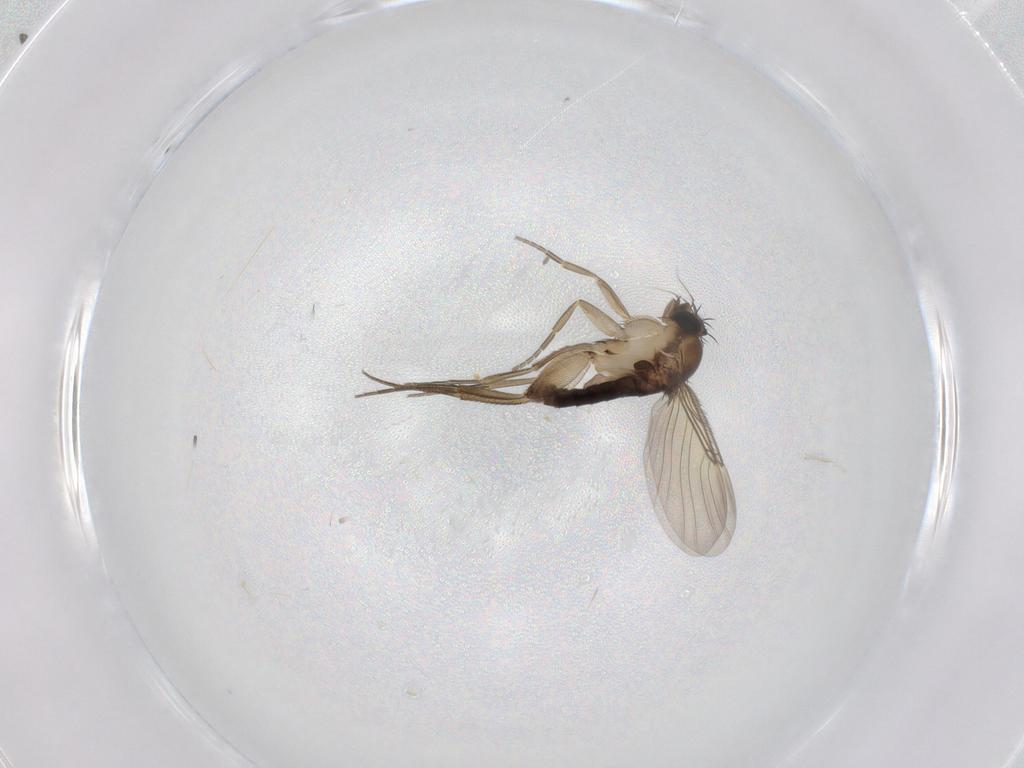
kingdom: Animalia
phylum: Arthropoda
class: Insecta
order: Diptera
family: Phoridae
